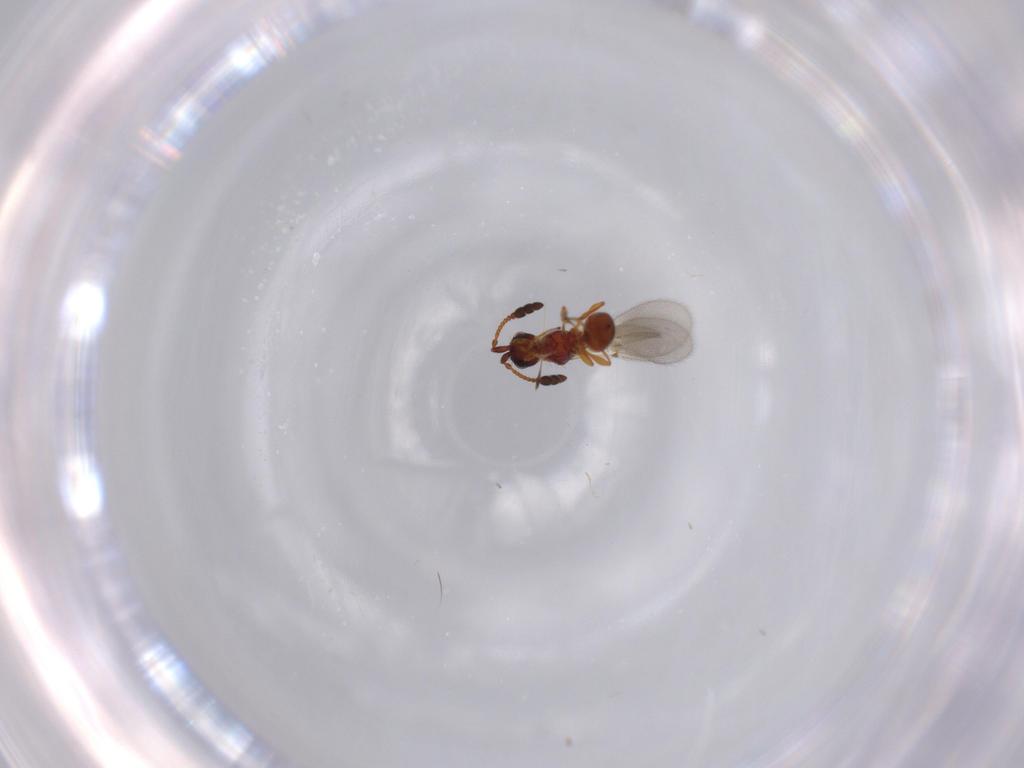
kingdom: Animalia
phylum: Arthropoda
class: Insecta
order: Hymenoptera
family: Diapriidae
